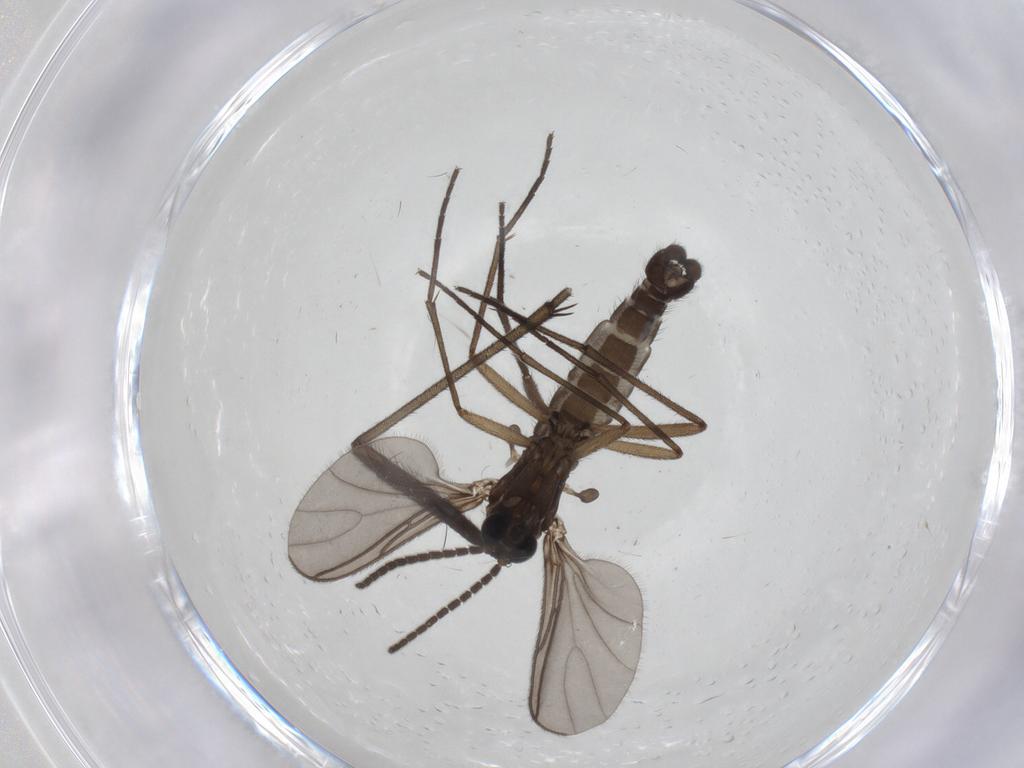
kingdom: Animalia
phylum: Arthropoda
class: Insecta
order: Diptera
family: Sciaridae
